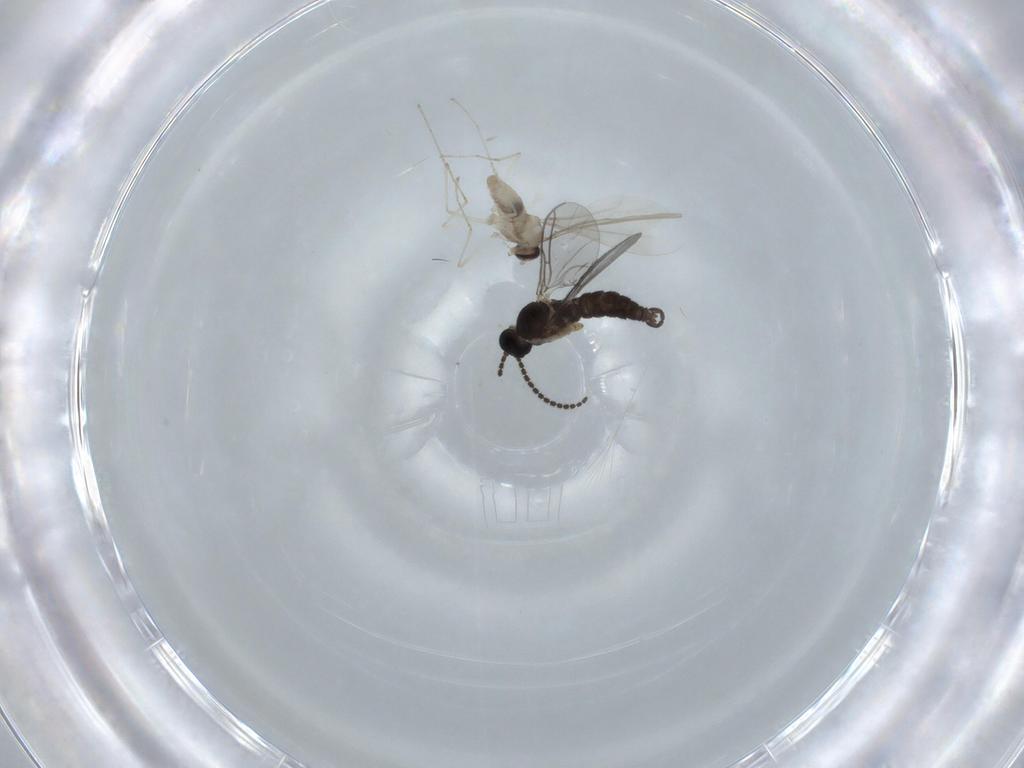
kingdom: Animalia
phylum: Arthropoda
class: Insecta
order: Diptera
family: Sciaridae
